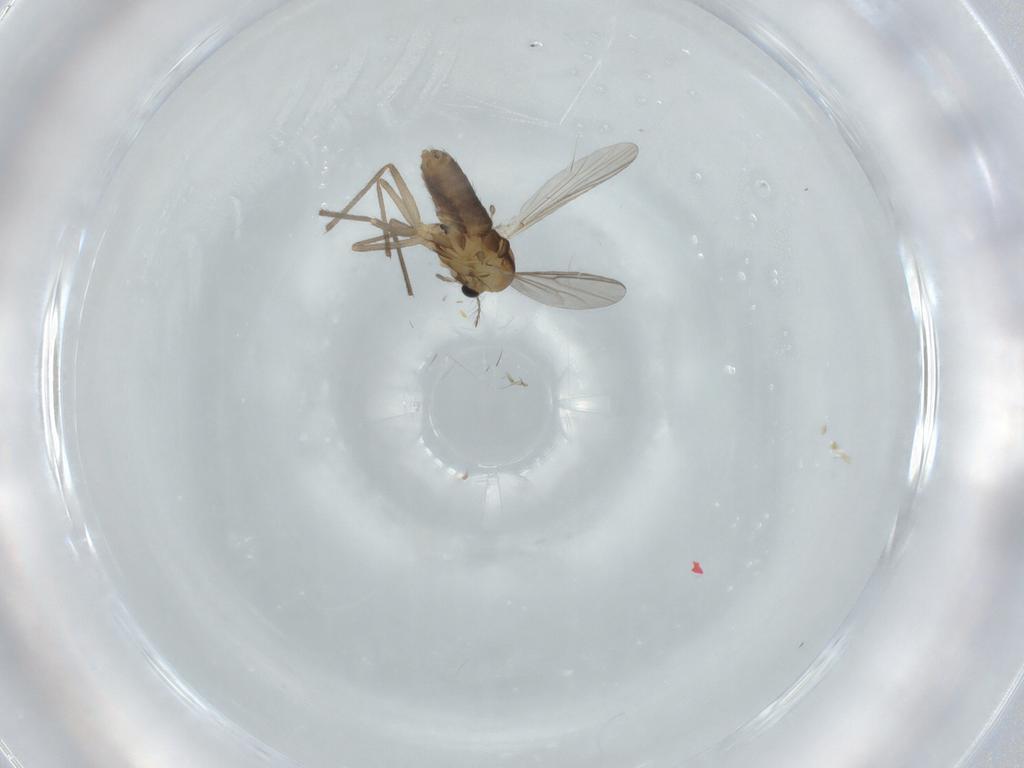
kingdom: Animalia
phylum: Arthropoda
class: Insecta
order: Diptera
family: Chironomidae
